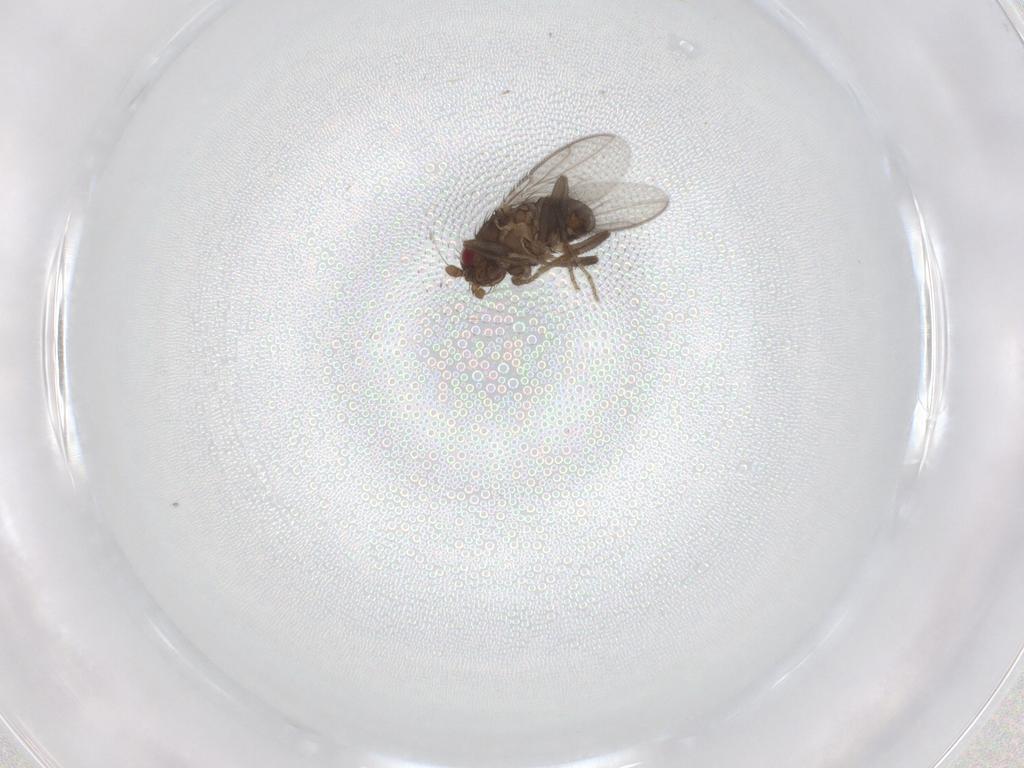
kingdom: Animalia
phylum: Arthropoda
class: Insecta
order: Diptera
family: Sphaeroceridae
